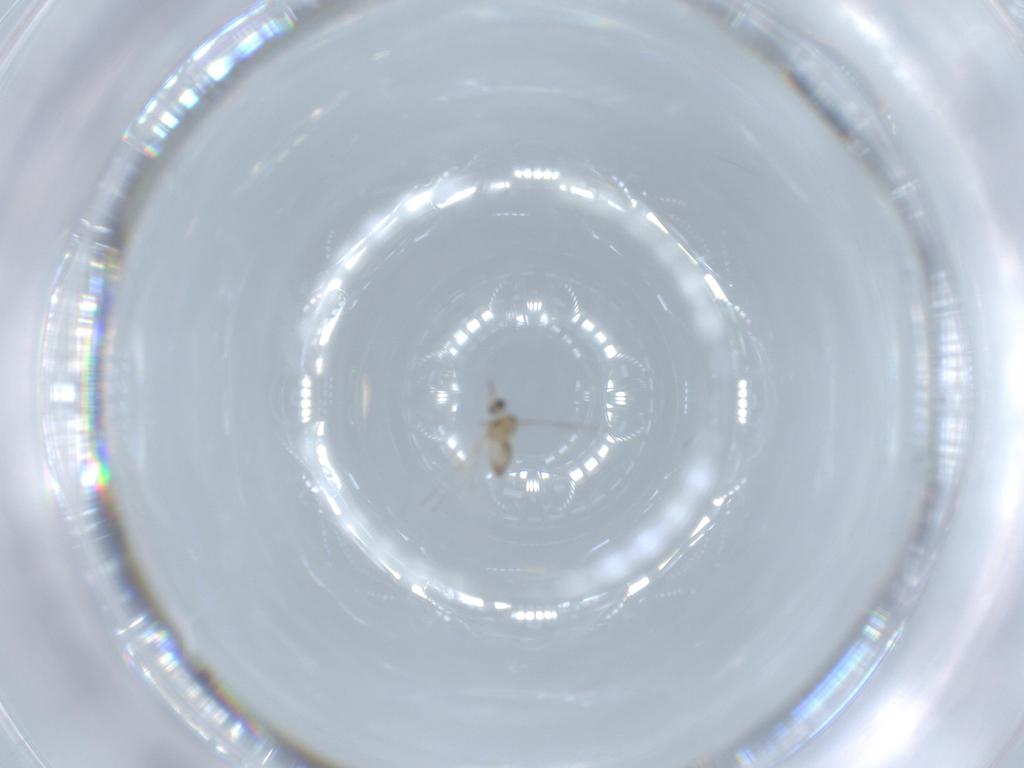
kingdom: Animalia
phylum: Arthropoda
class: Insecta
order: Diptera
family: Cecidomyiidae
